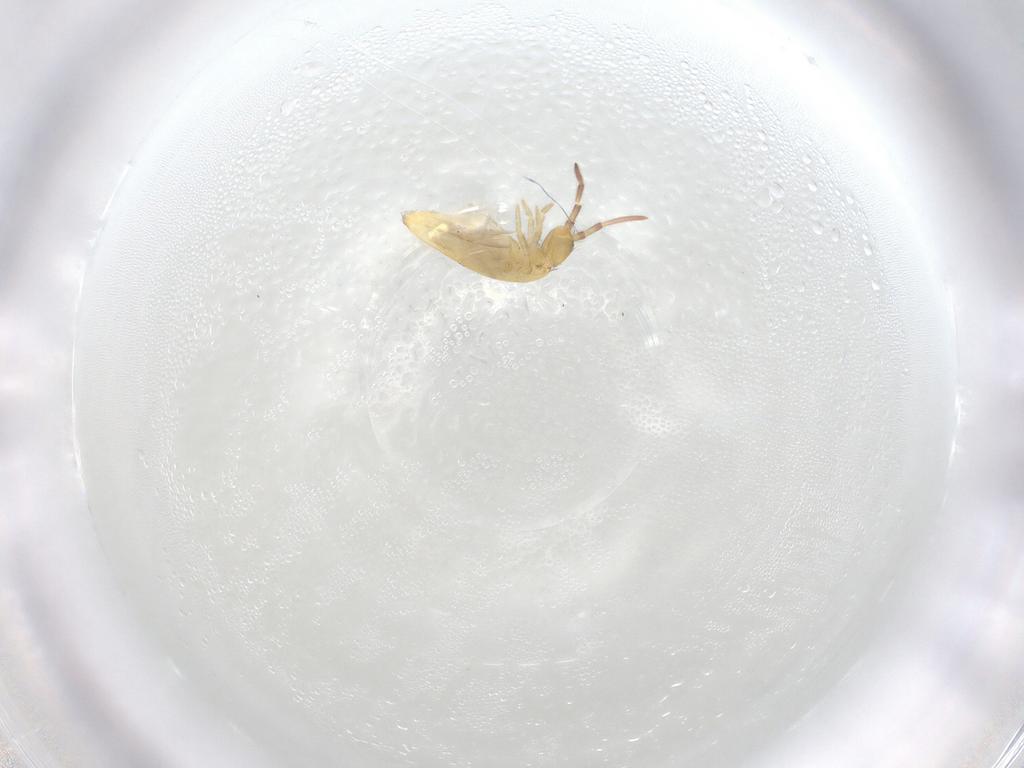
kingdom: Animalia
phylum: Arthropoda
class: Collembola
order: Entomobryomorpha
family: Entomobryidae
